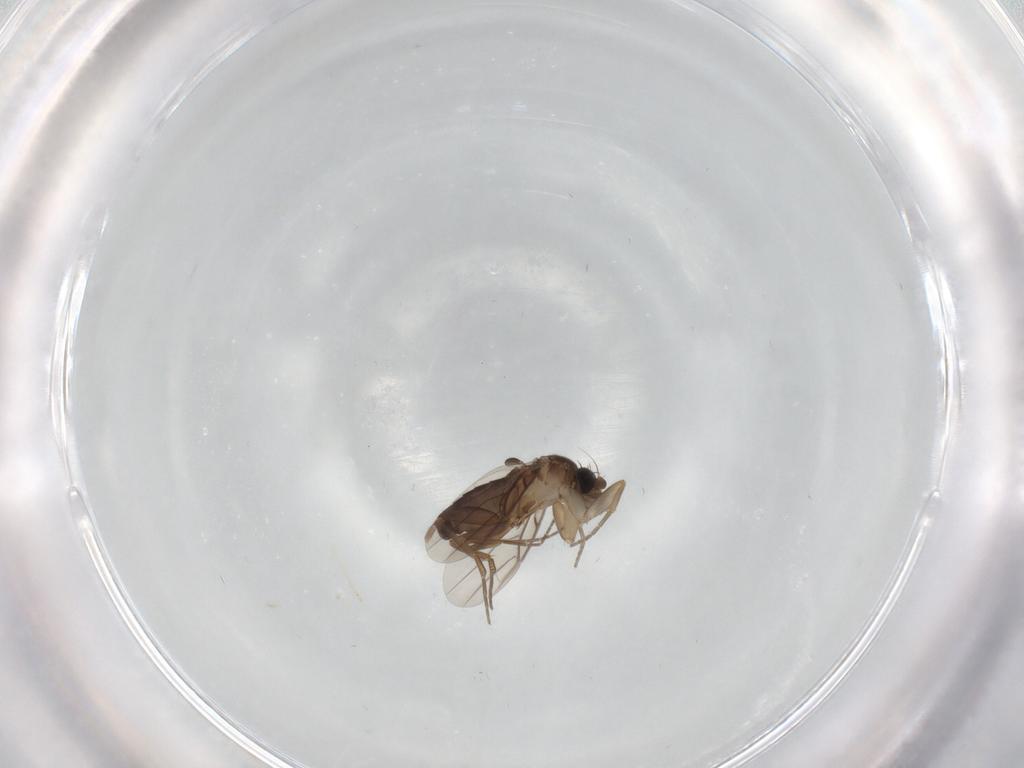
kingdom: Animalia
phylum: Arthropoda
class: Insecta
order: Diptera
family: Phoridae
